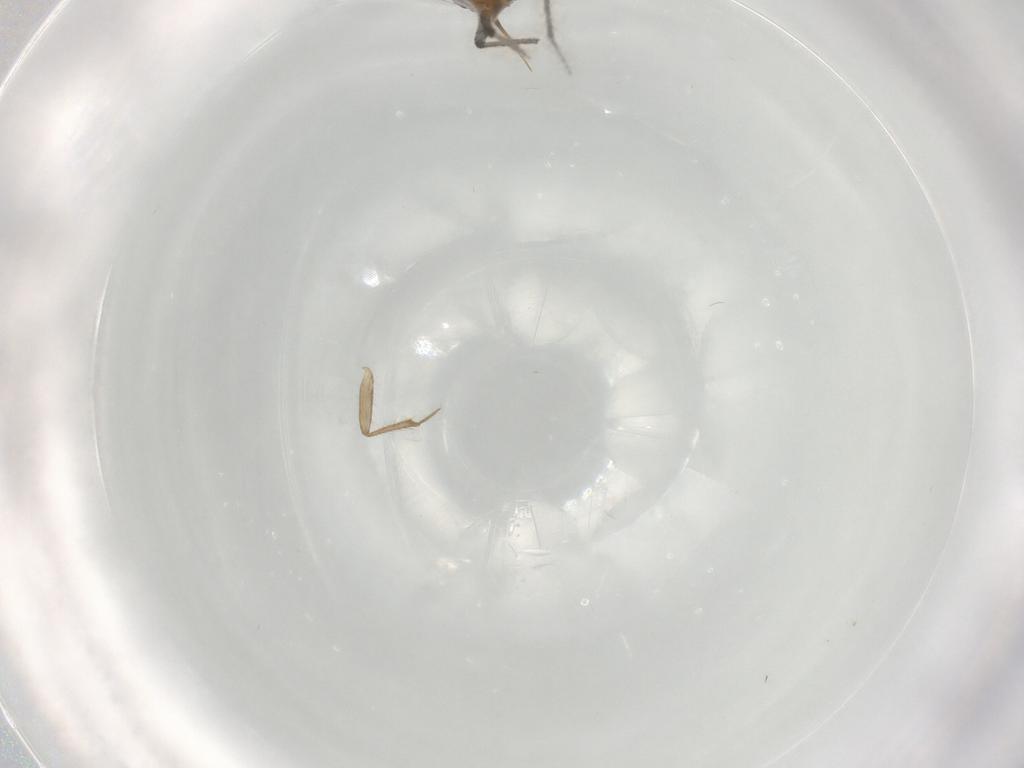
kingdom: Animalia
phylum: Arthropoda
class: Insecta
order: Hemiptera
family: Ceratocombidae
